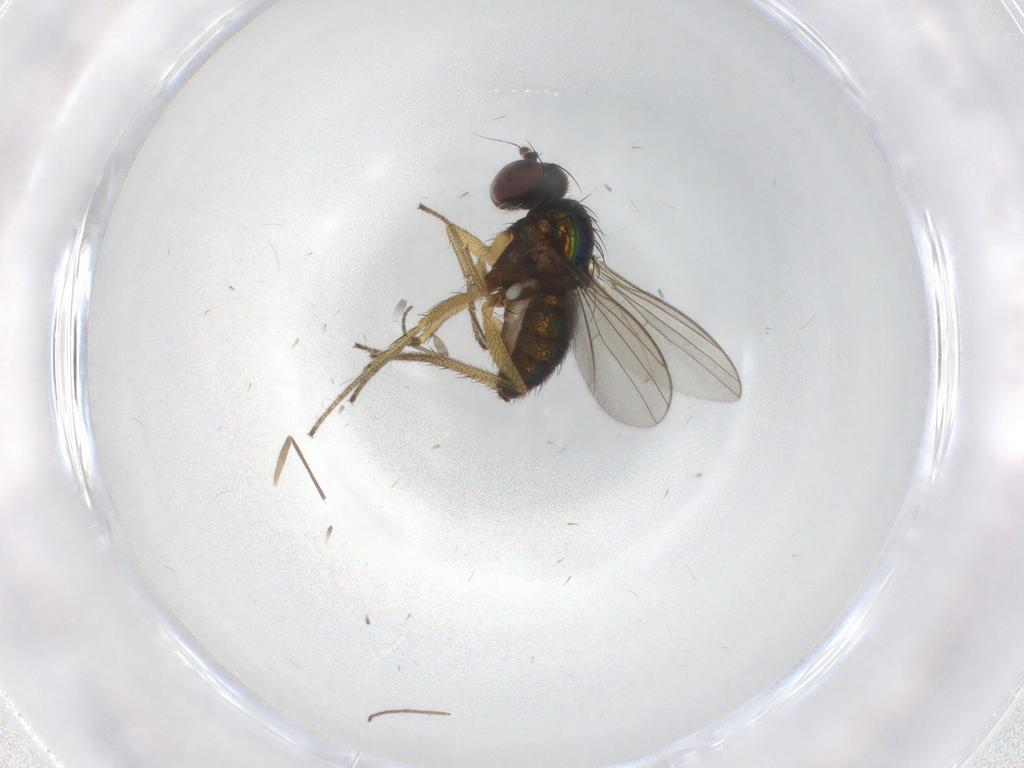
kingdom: Animalia
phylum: Arthropoda
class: Insecta
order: Diptera
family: Sciaridae
